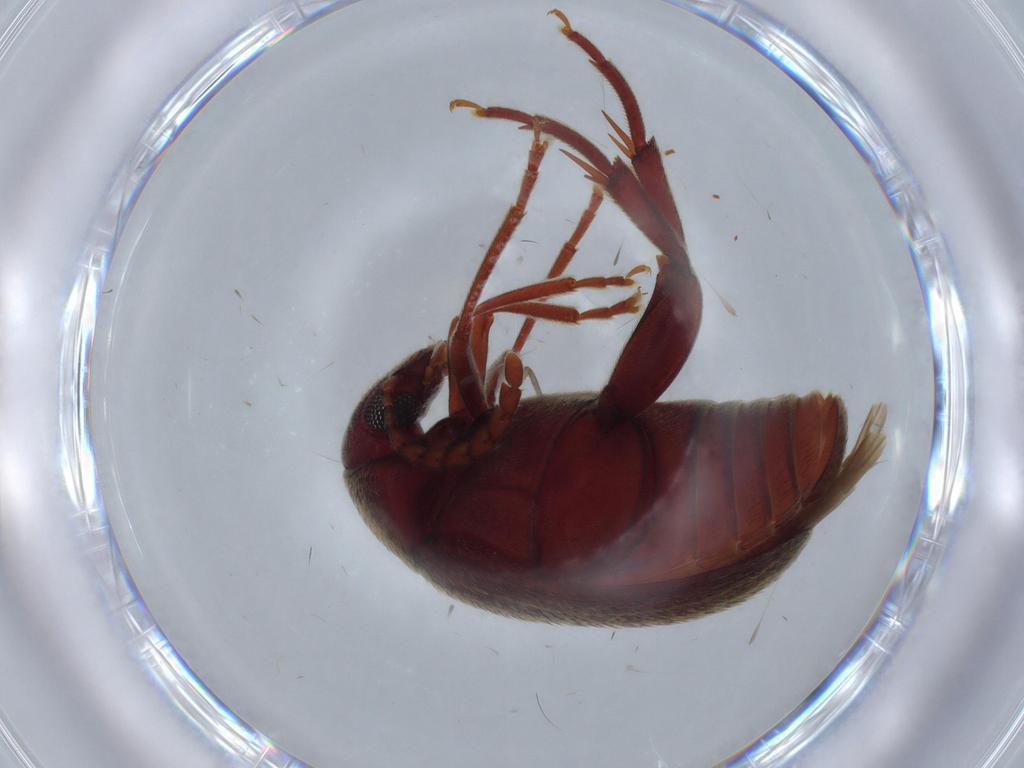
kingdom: Animalia
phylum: Arthropoda
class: Insecta
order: Coleoptera
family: Chrysomelidae
